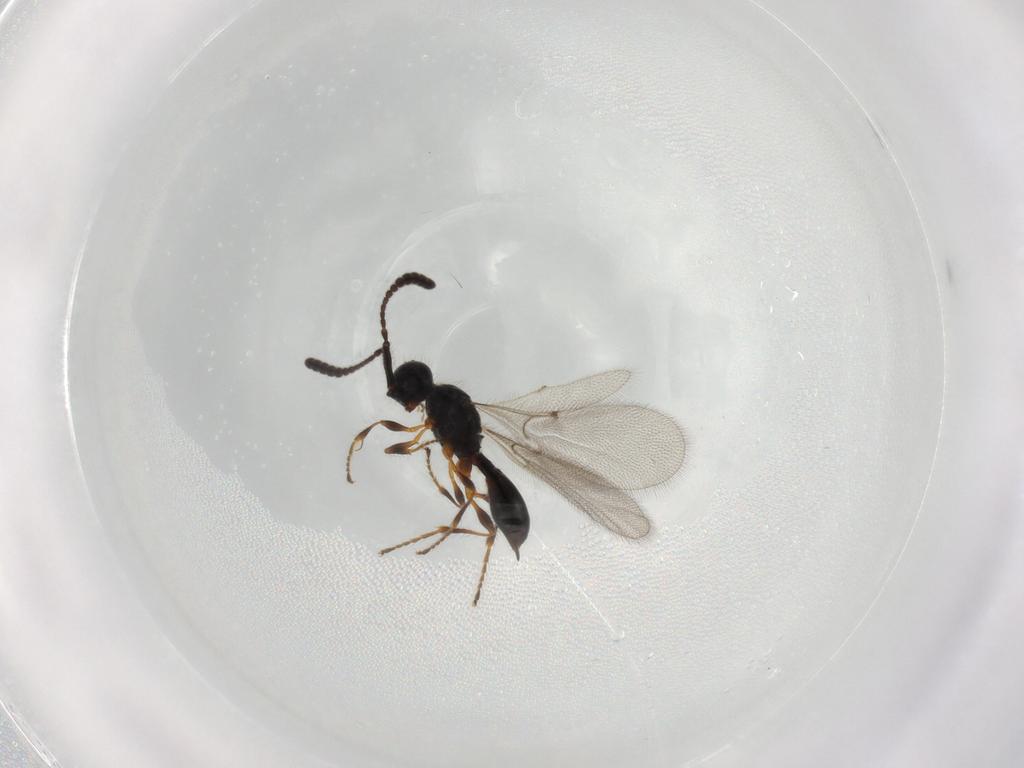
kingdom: Animalia
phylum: Arthropoda
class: Insecta
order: Hymenoptera
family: Diapriidae
